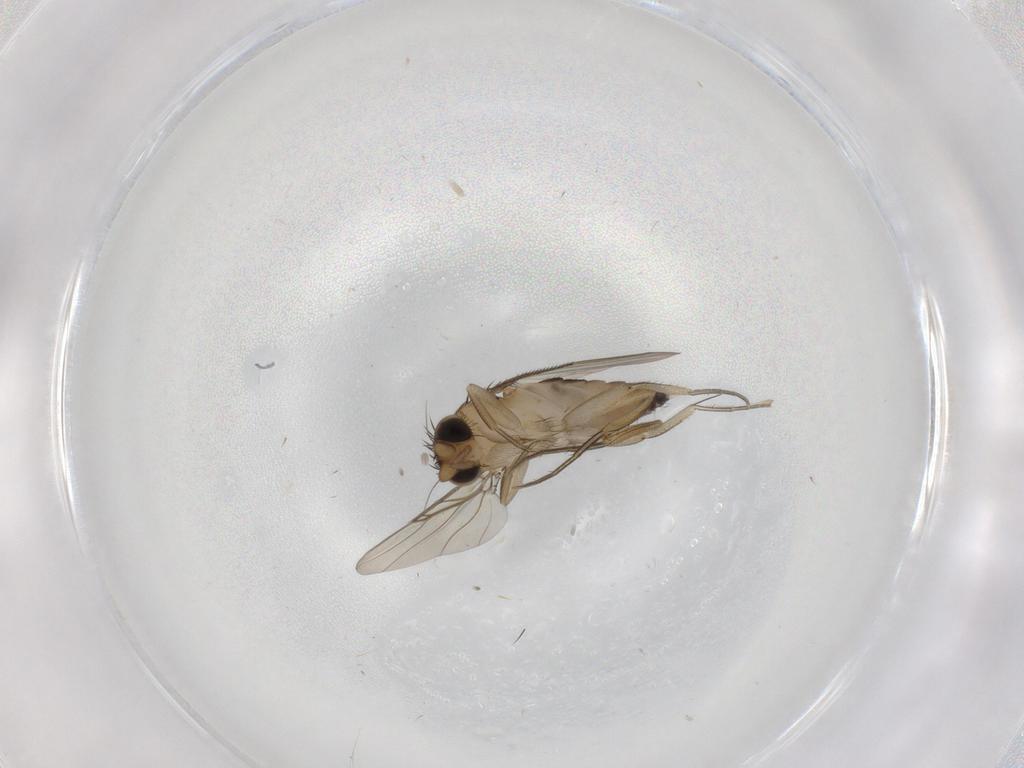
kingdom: Animalia
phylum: Arthropoda
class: Insecta
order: Diptera
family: Phoridae
